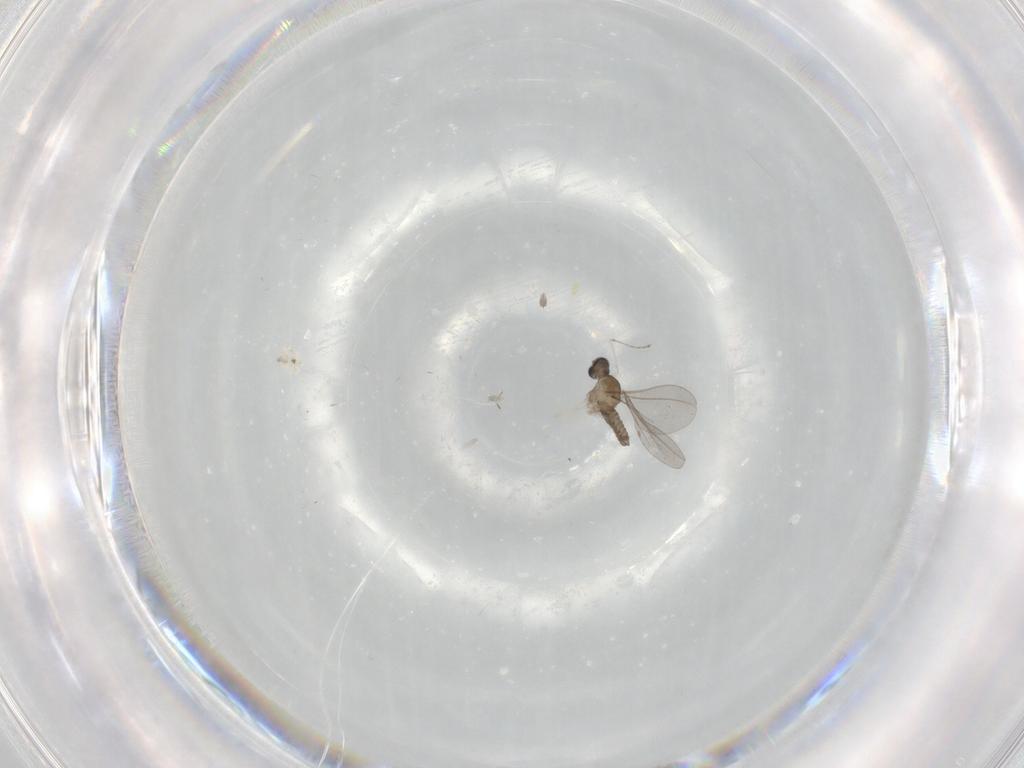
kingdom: Animalia
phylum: Arthropoda
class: Insecta
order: Diptera
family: Cecidomyiidae
